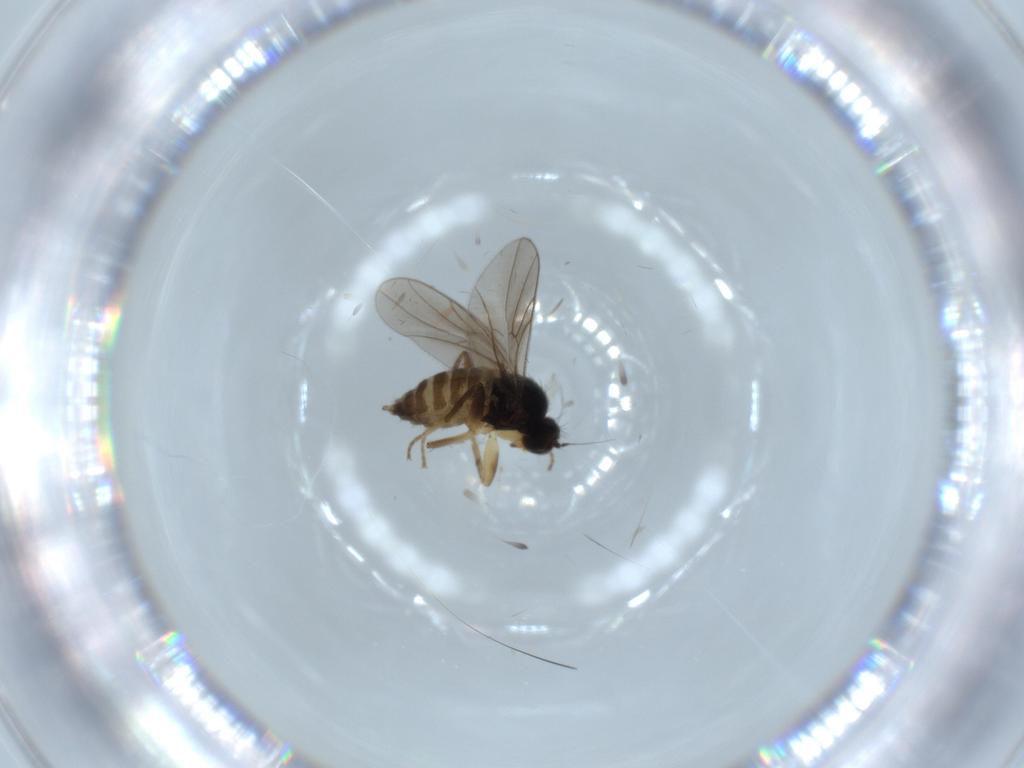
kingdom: Animalia
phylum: Arthropoda
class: Insecta
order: Diptera
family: Hybotidae
